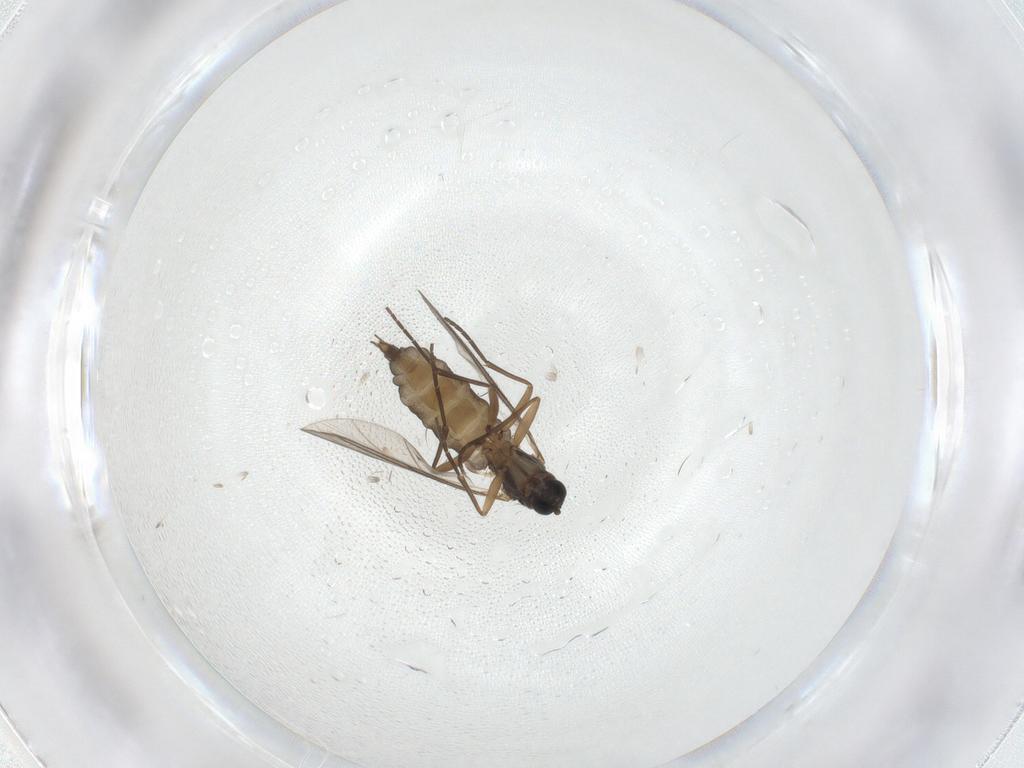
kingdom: Animalia
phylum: Arthropoda
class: Insecta
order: Diptera
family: Sciaridae
